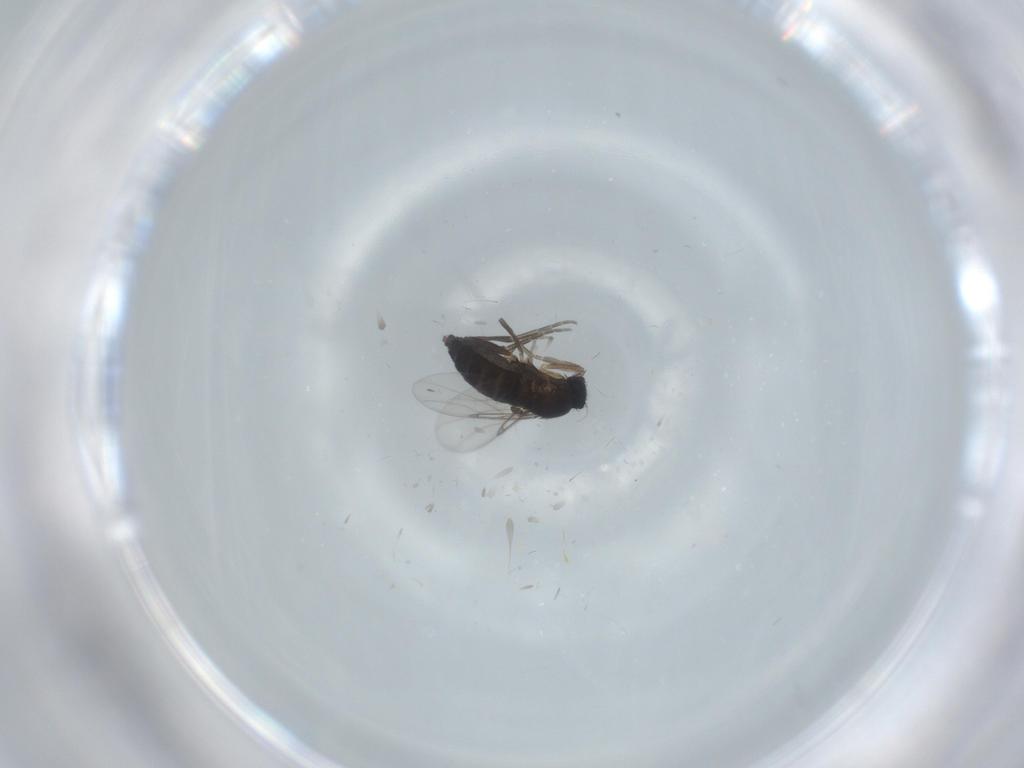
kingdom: Animalia
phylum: Arthropoda
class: Insecta
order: Diptera
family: Phoridae
